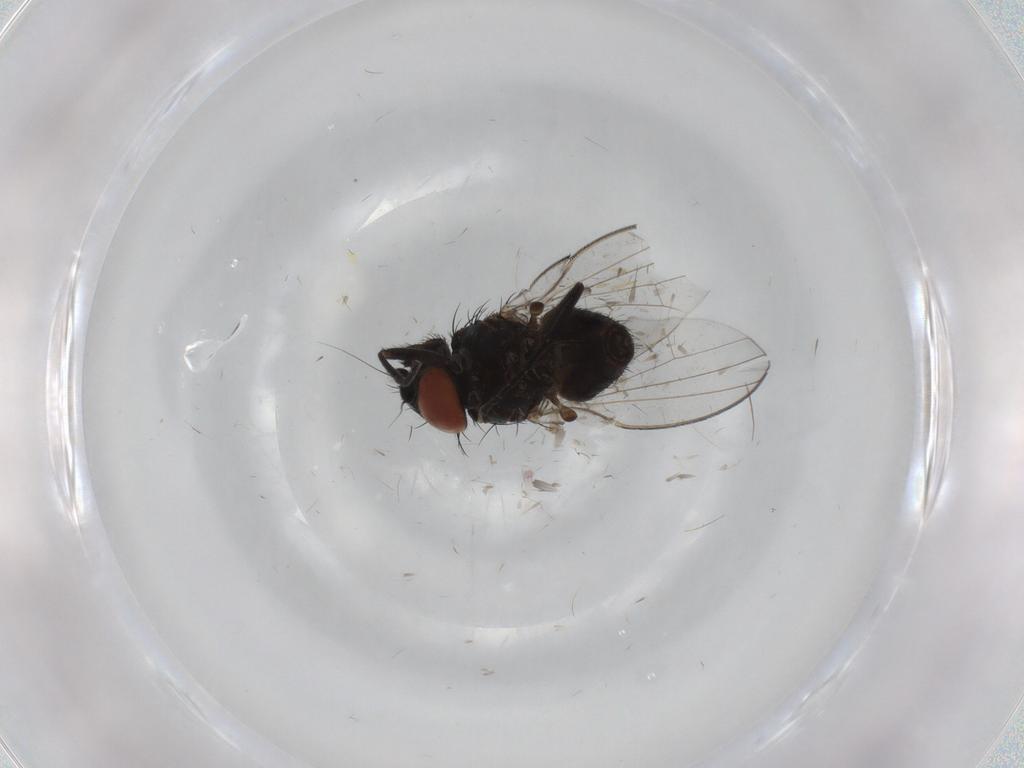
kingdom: Animalia
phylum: Arthropoda
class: Insecta
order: Diptera
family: Milichiidae
